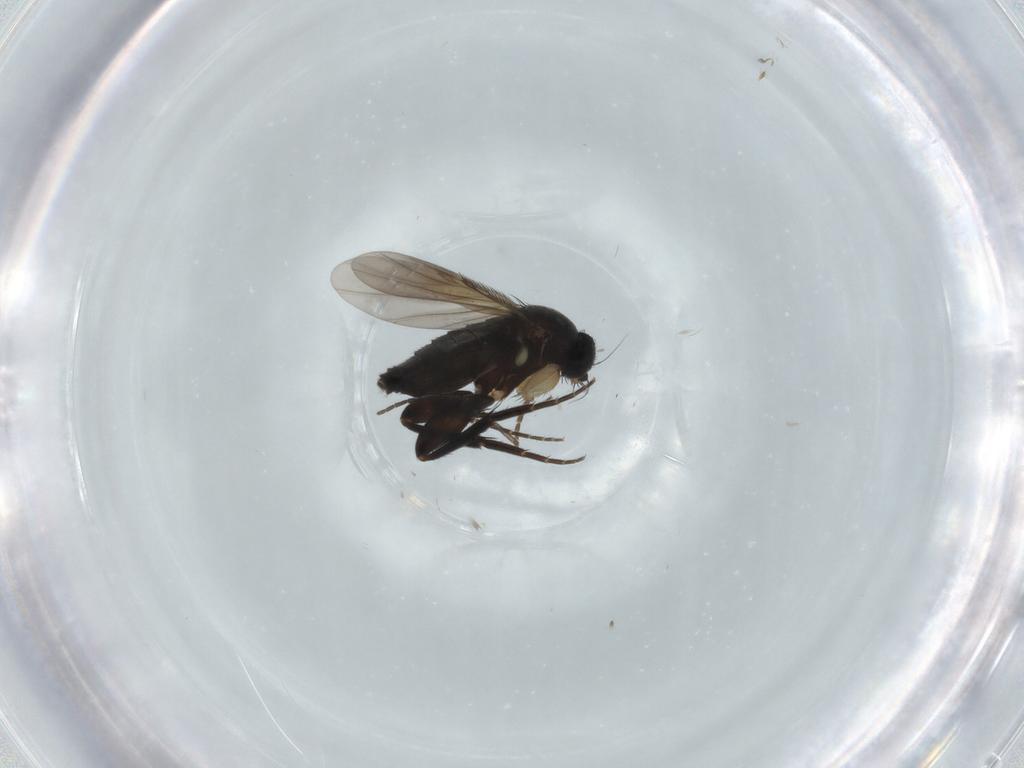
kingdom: Animalia
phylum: Arthropoda
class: Insecta
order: Diptera
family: Phoridae
